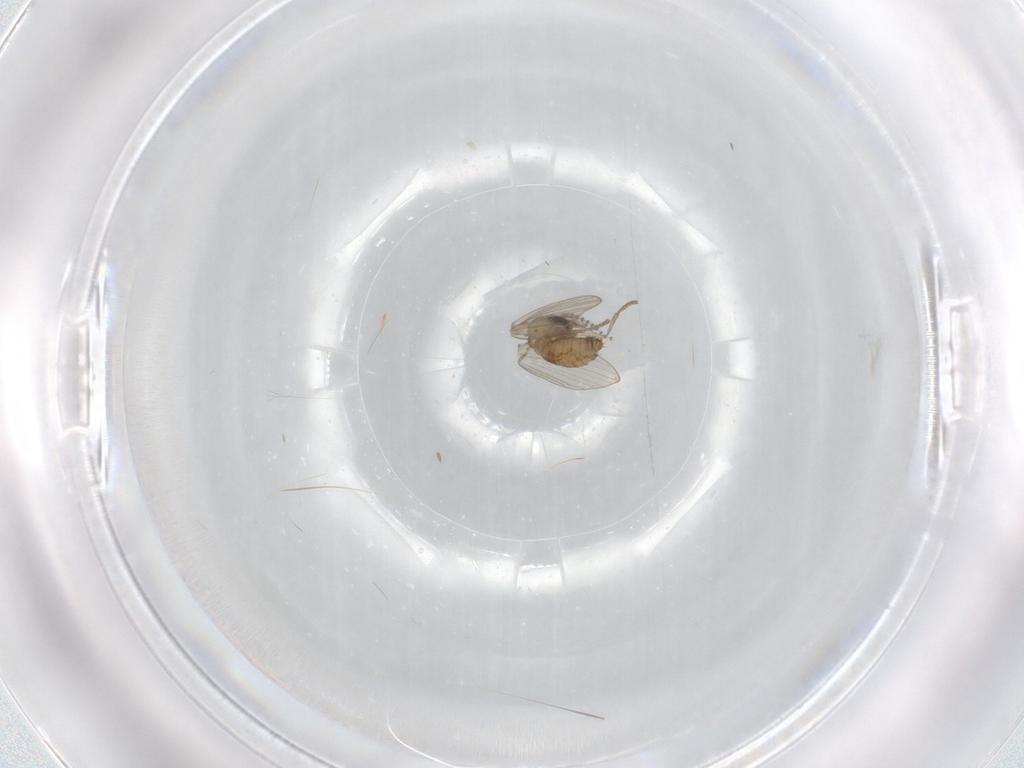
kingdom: Animalia
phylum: Arthropoda
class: Insecta
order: Diptera
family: Psychodidae
